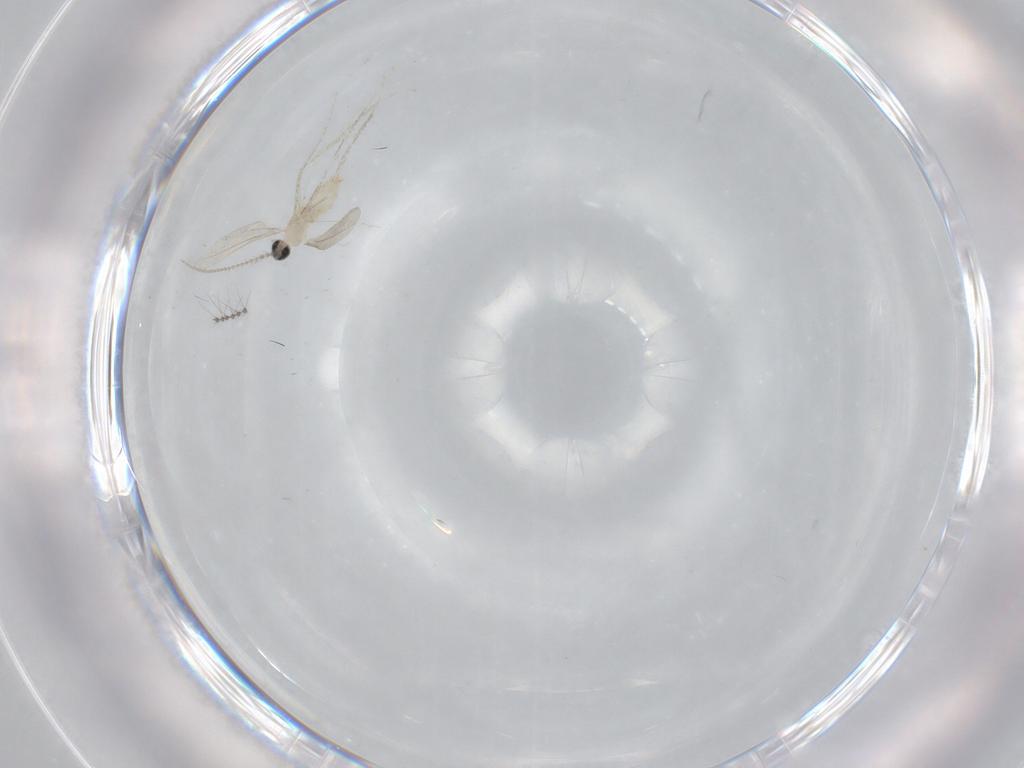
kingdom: Animalia
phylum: Arthropoda
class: Insecta
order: Diptera
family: Cecidomyiidae
